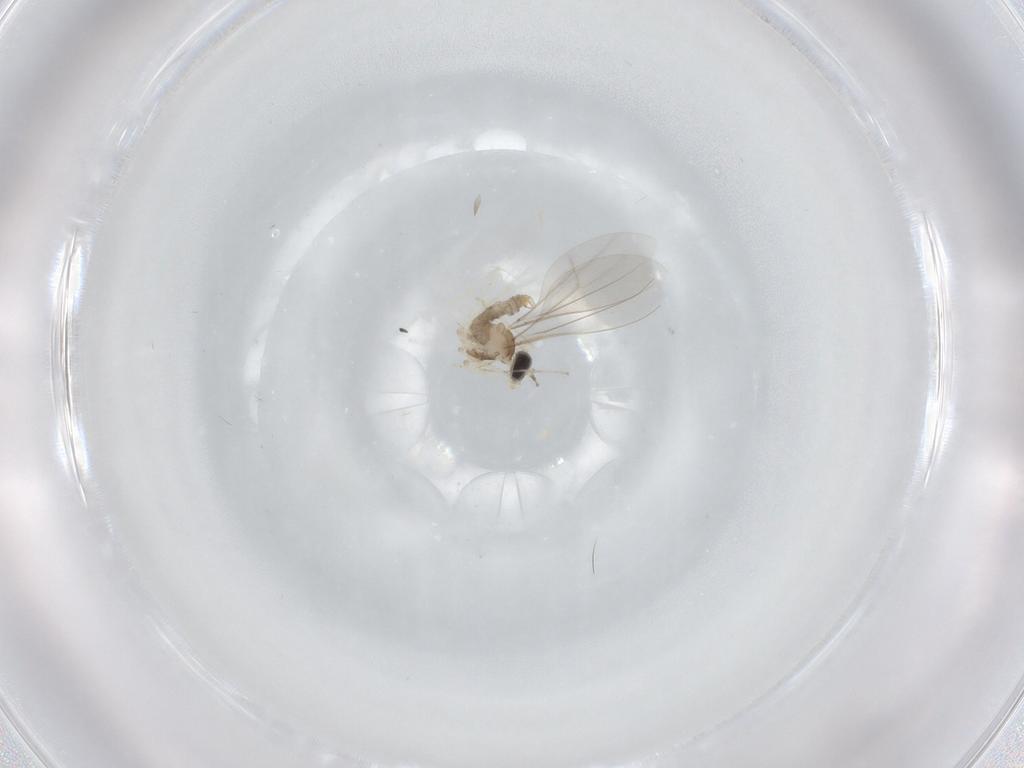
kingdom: Animalia
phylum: Arthropoda
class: Insecta
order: Diptera
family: Cecidomyiidae
